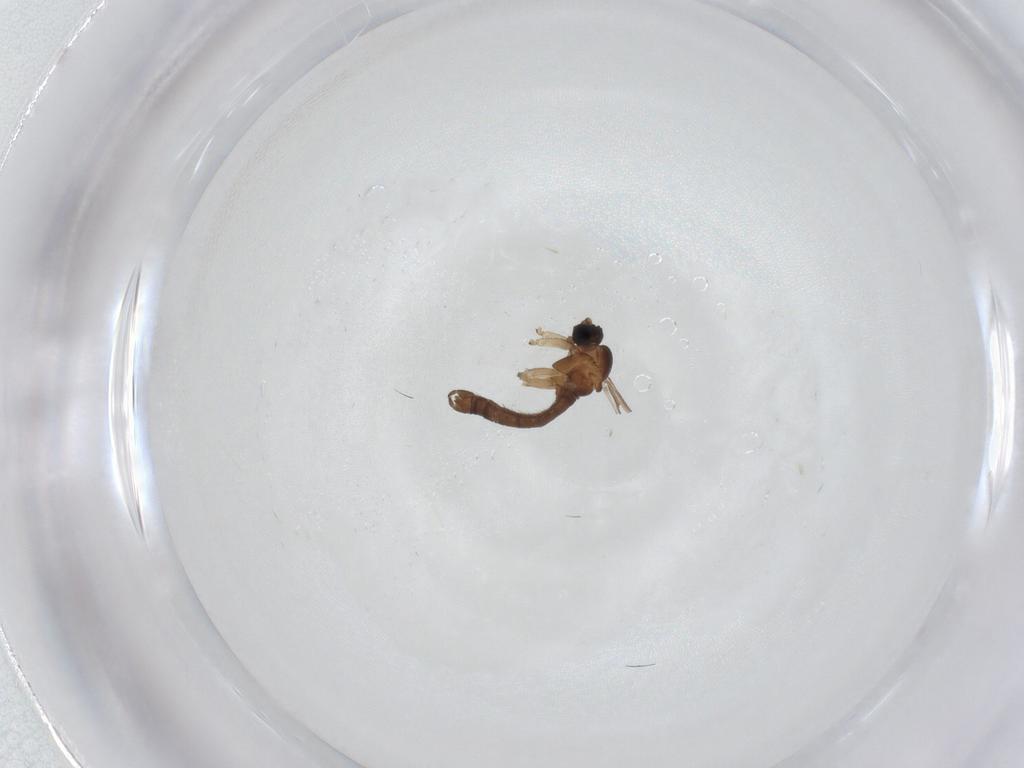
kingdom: Animalia
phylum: Arthropoda
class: Insecta
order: Diptera
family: Sciaridae
